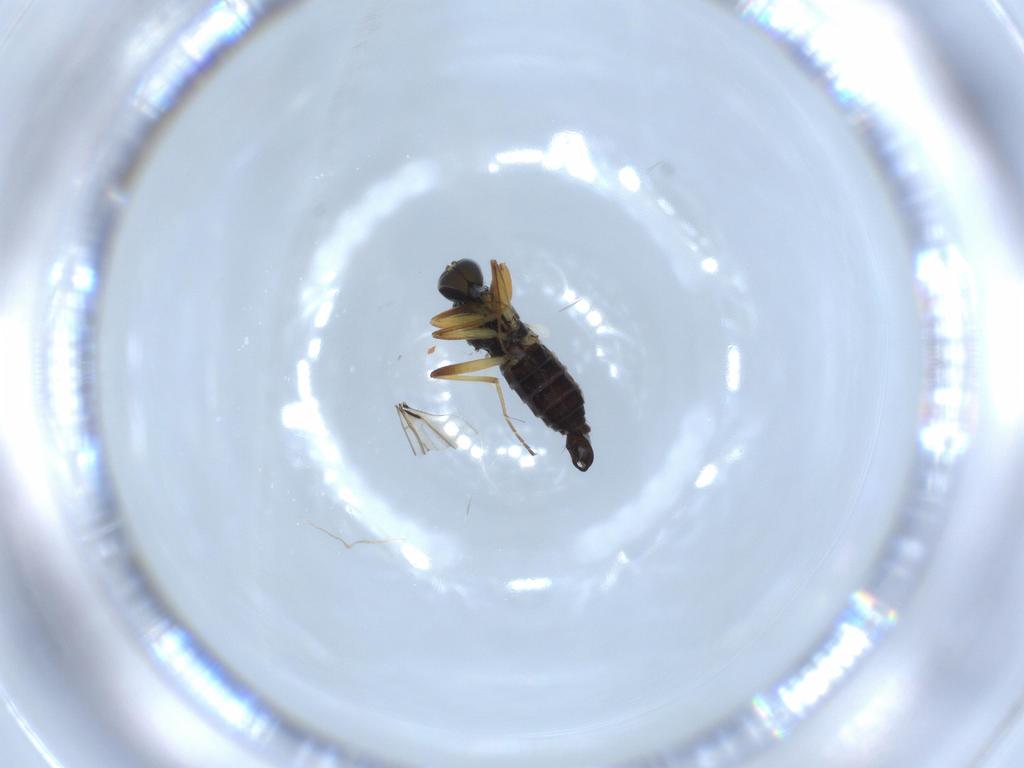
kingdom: Animalia
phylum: Arthropoda
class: Insecta
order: Diptera
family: Hybotidae
